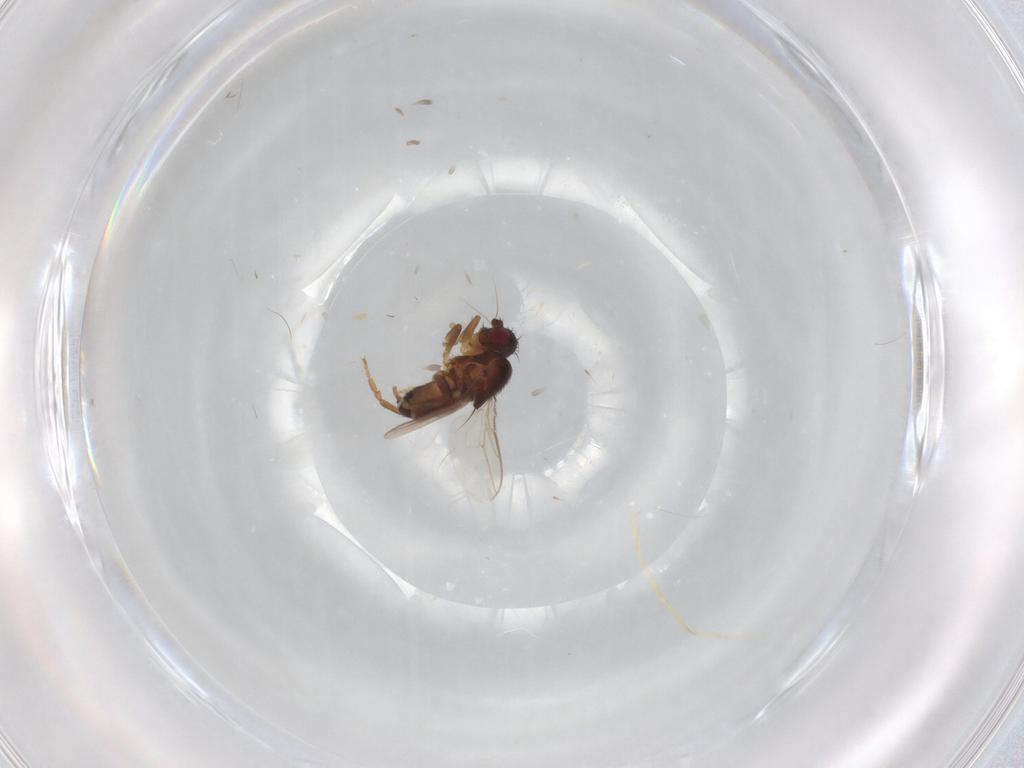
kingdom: Animalia
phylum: Arthropoda
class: Insecta
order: Diptera
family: Sphaeroceridae
